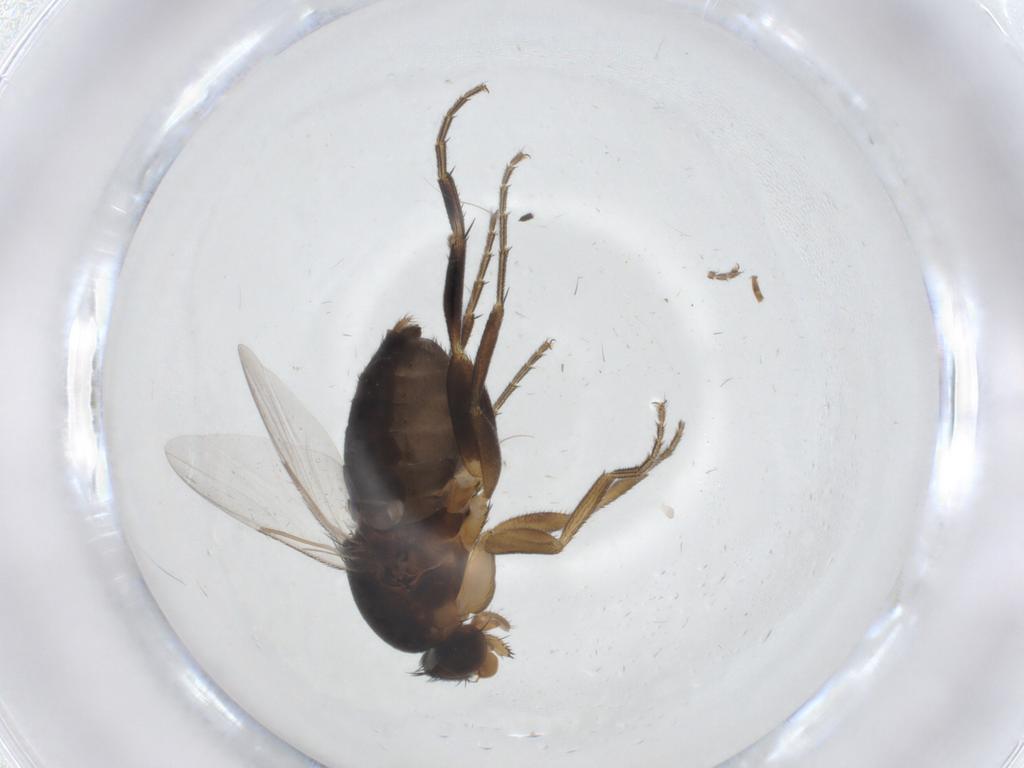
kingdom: Animalia
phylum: Arthropoda
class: Insecta
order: Diptera
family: Phoridae
